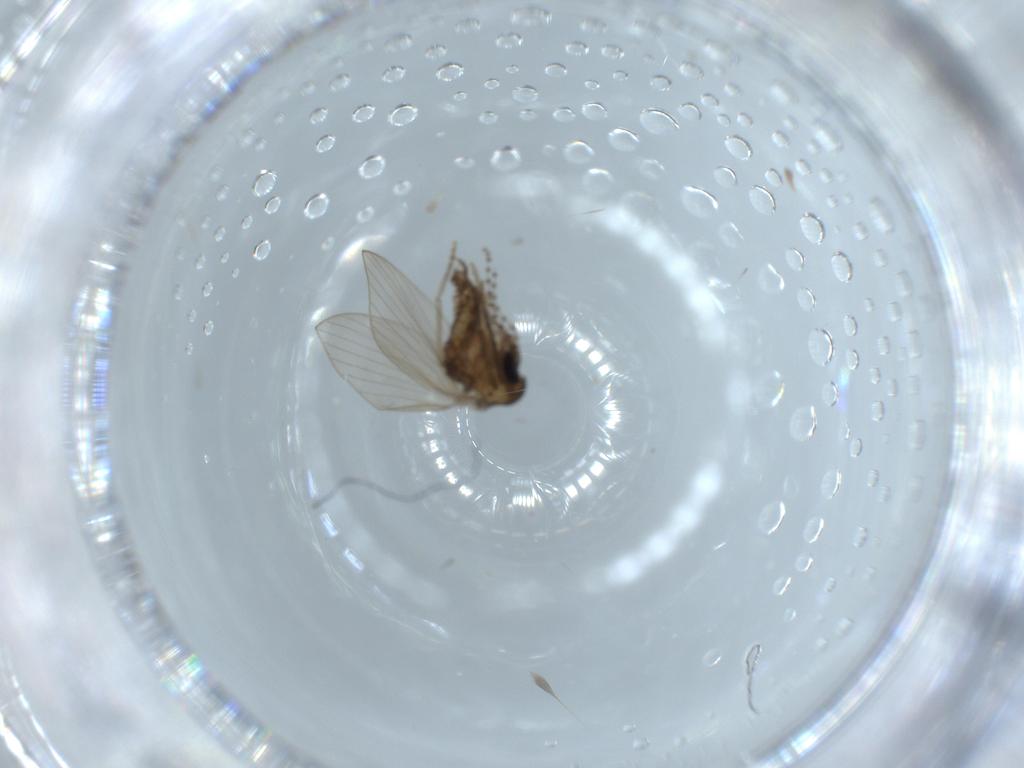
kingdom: Animalia
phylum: Arthropoda
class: Insecta
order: Diptera
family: Psychodidae
